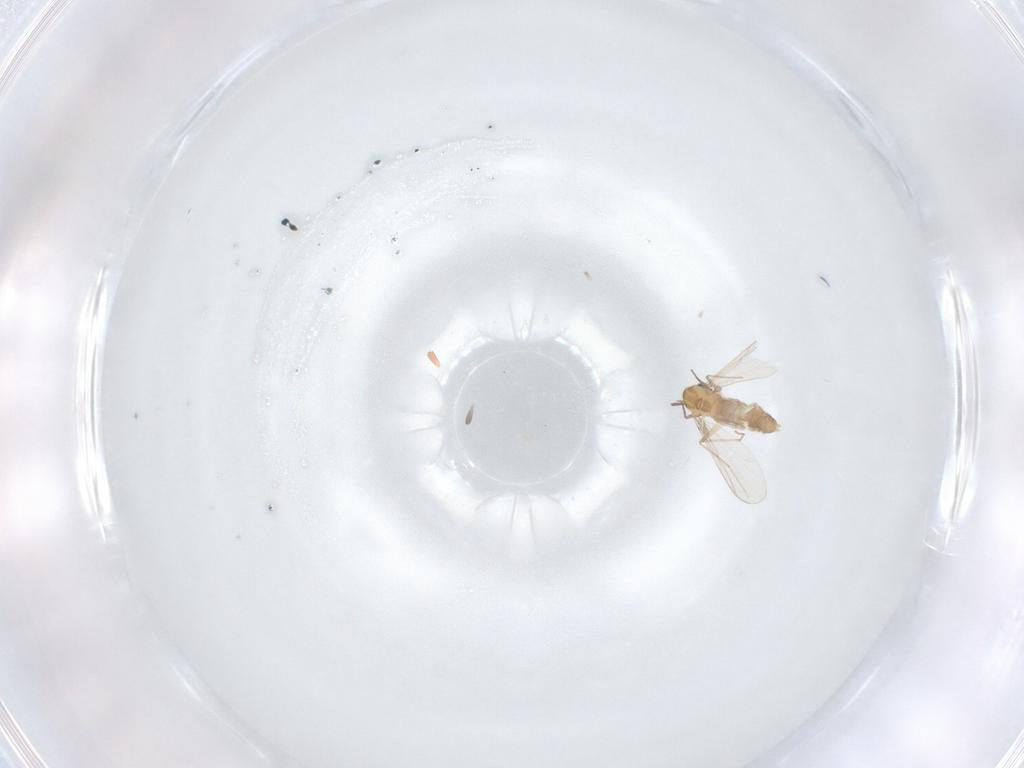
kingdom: Animalia
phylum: Arthropoda
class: Insecta
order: Diptera
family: Chironomidae
